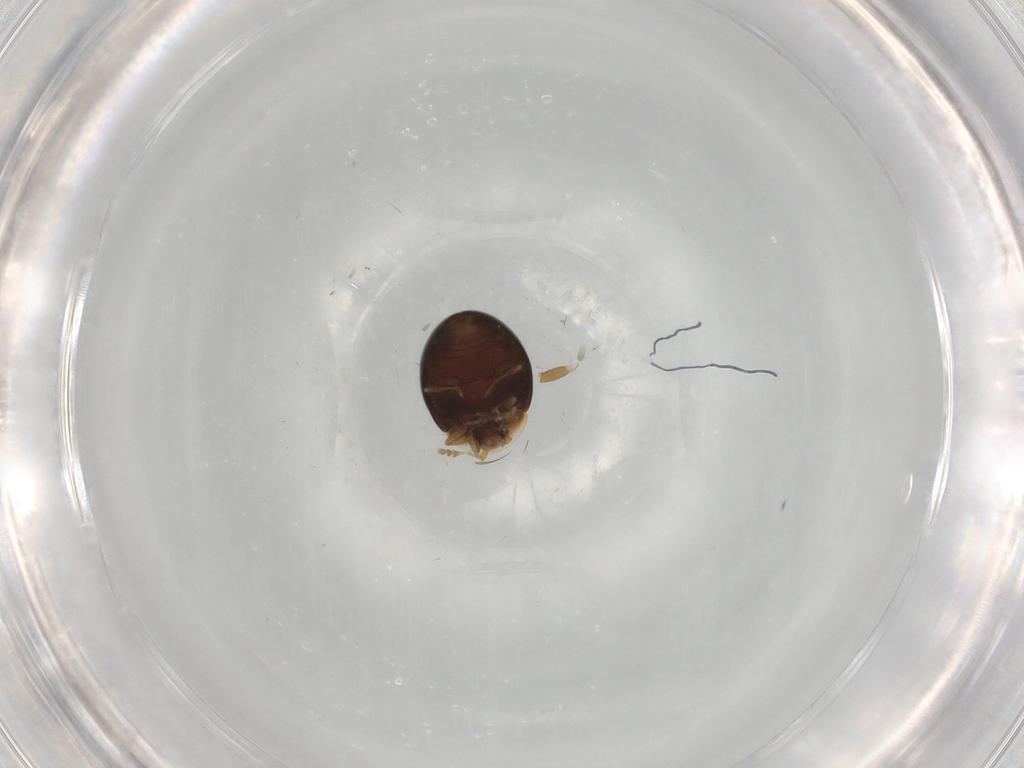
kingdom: Animalia
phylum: Arthropoda
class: Insecta
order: Coleoptera
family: Corylophidae
